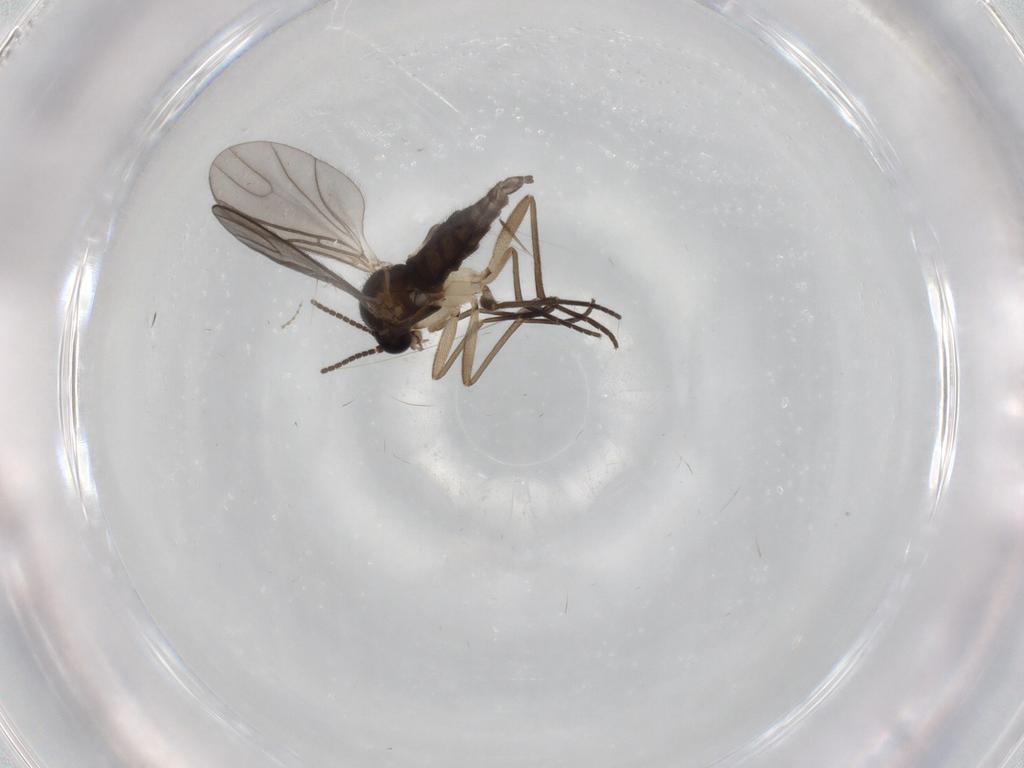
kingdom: Animalia
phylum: Arthropoda
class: Insecta
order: Diptera
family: Sciaridae
